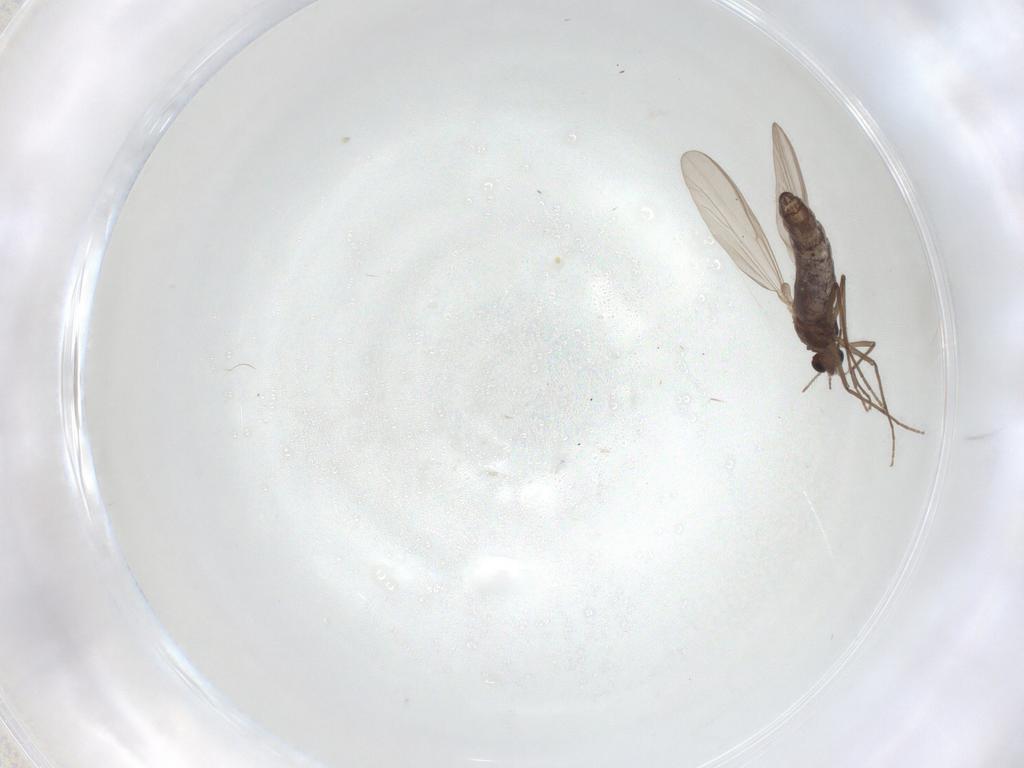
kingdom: Animalia
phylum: Arthropoda
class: Insecta
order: Diptera
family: Chironomidae
